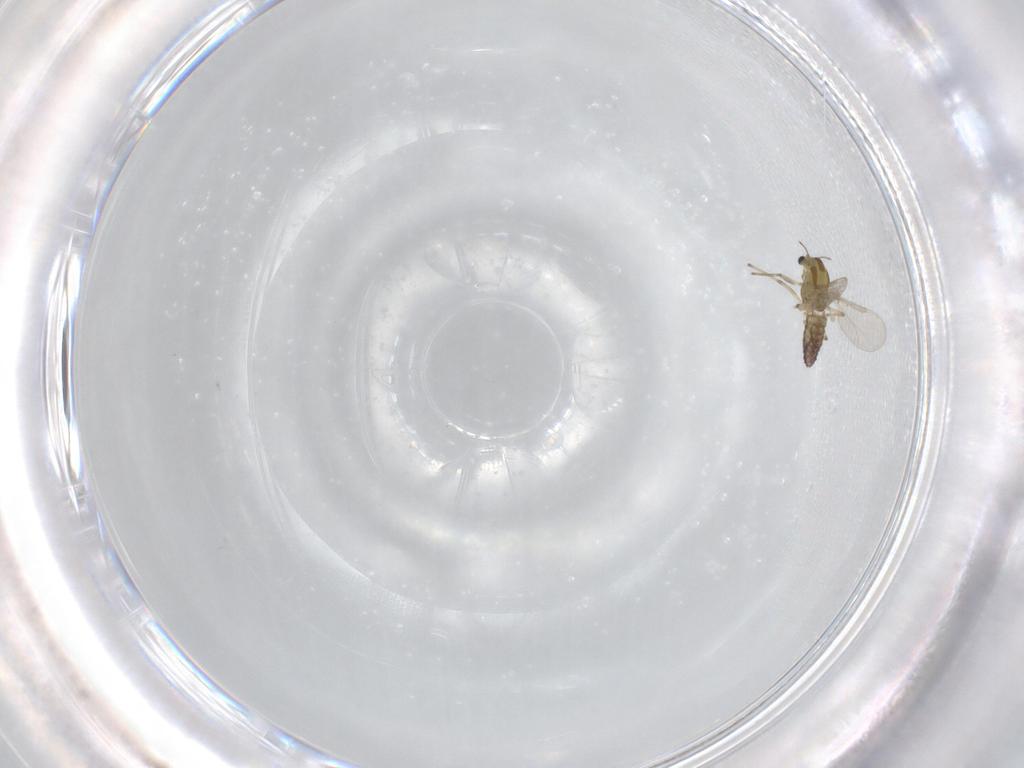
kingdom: Animalia
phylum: Arthropoda
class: Insecta
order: Diptera
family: Chironomidae
